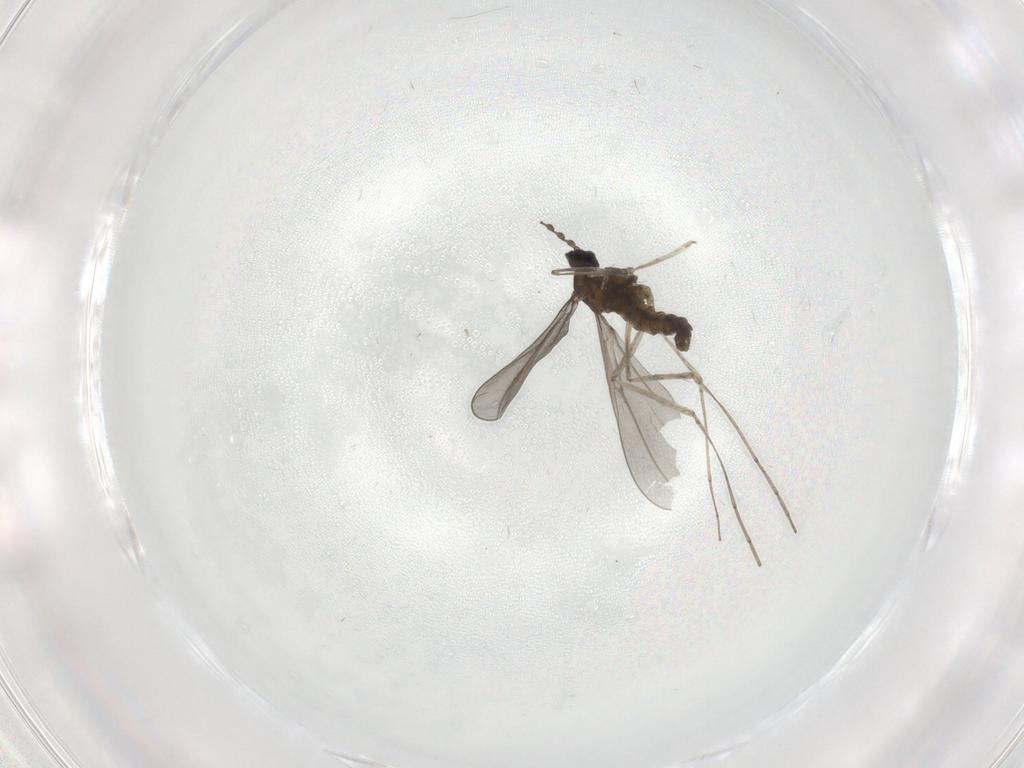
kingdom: Animalia
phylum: Arthropoda
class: Insecta
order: Diptera
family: Cecidomyiidae
